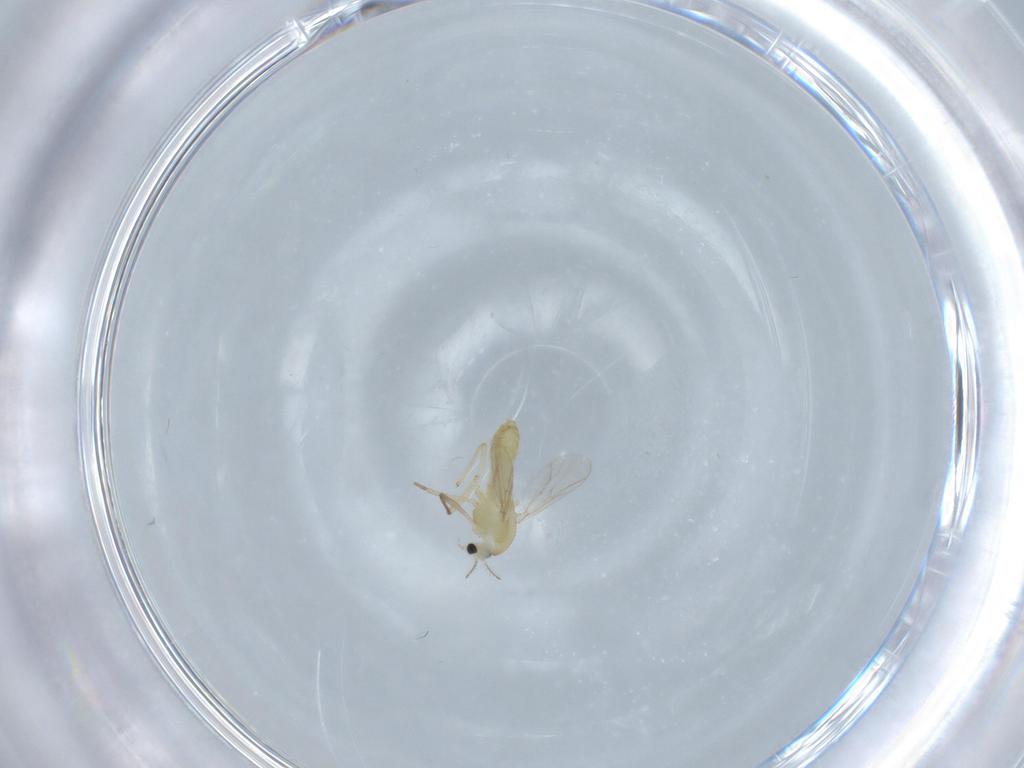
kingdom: Animalia
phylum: Arthropoda
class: Insecta
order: Diptera
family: Chironomidae
